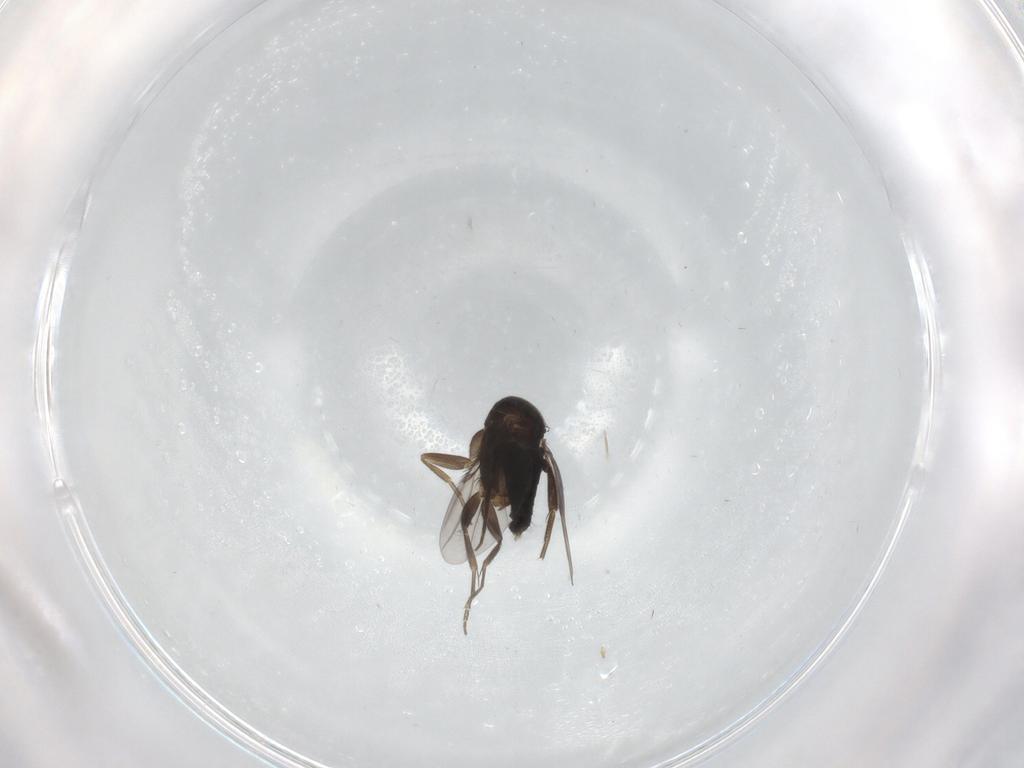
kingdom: Animalia
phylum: Arthropoda
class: Insecta
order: Diptera
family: Phoridae
